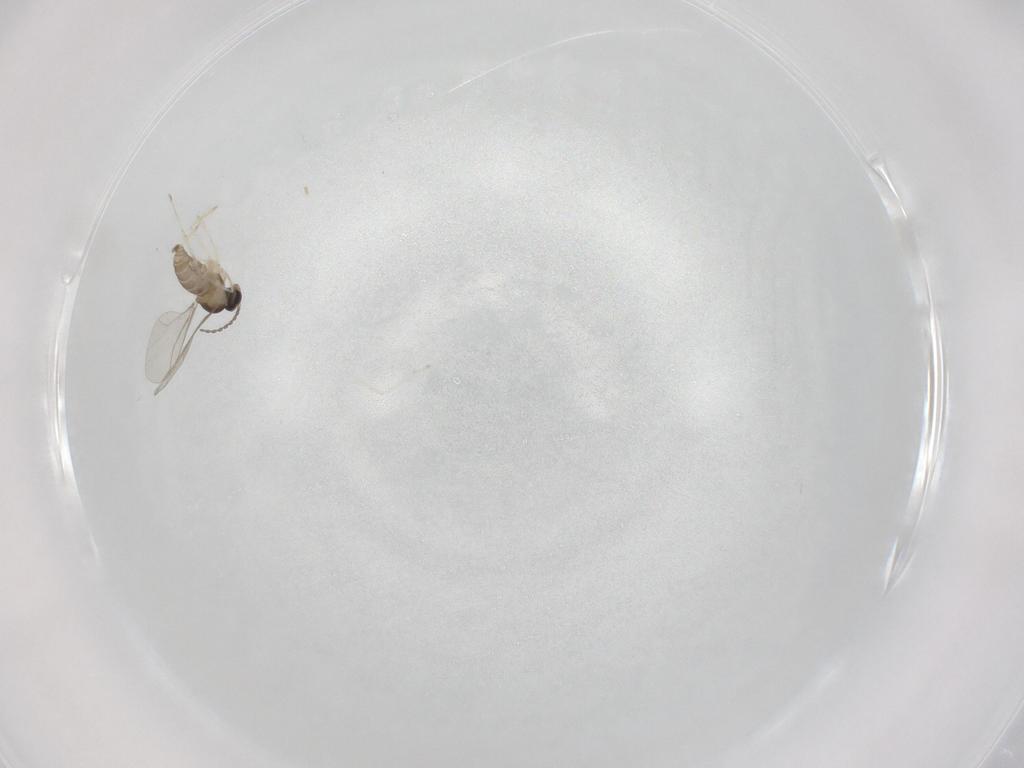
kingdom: Animalia
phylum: Arthropoda
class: Insecta
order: Diptera
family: Cecidomyiidae
